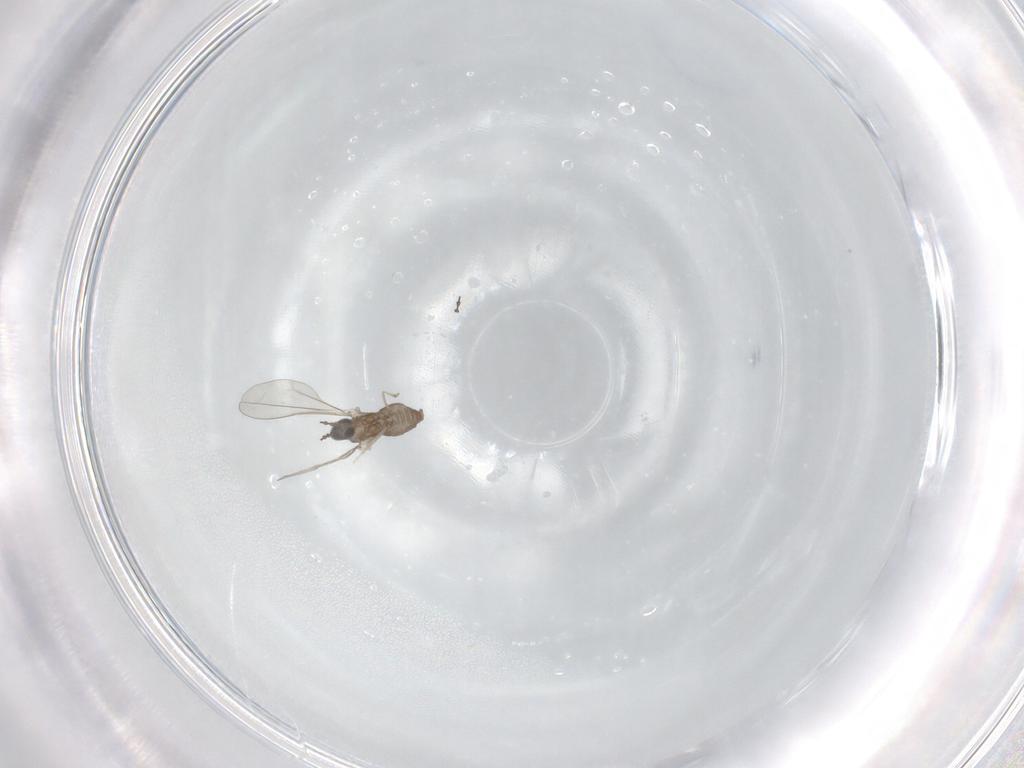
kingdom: Animalia
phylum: Arthropoda
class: Insecta
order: Diptera
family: Cecidomyiidae
